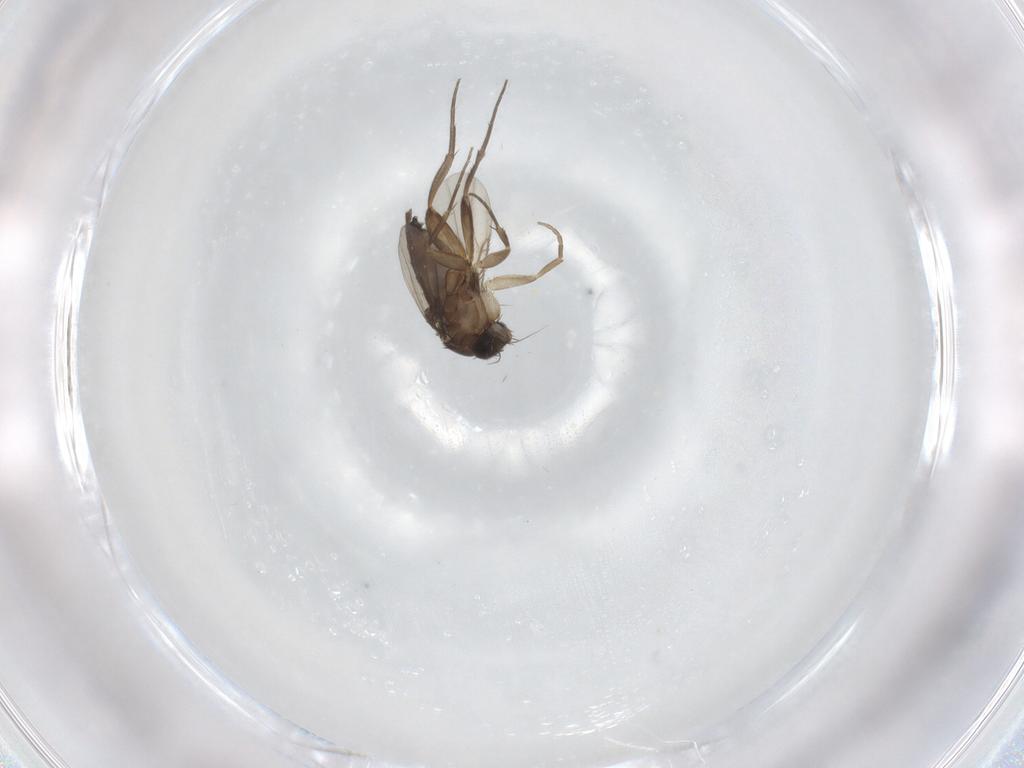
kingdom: Animalia
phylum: Arthropoda
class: Insecta
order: Diptera
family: Phoridae
